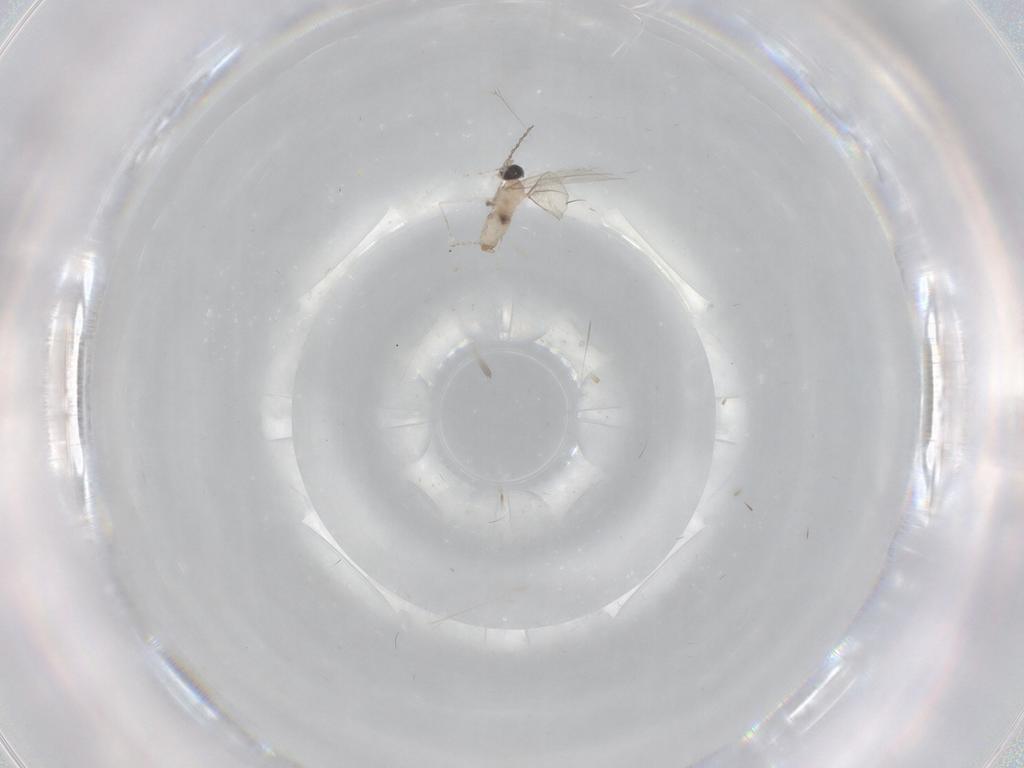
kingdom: Animalia
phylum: Arthropoda
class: Insecta
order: Diptera
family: Cecidomyiidae
